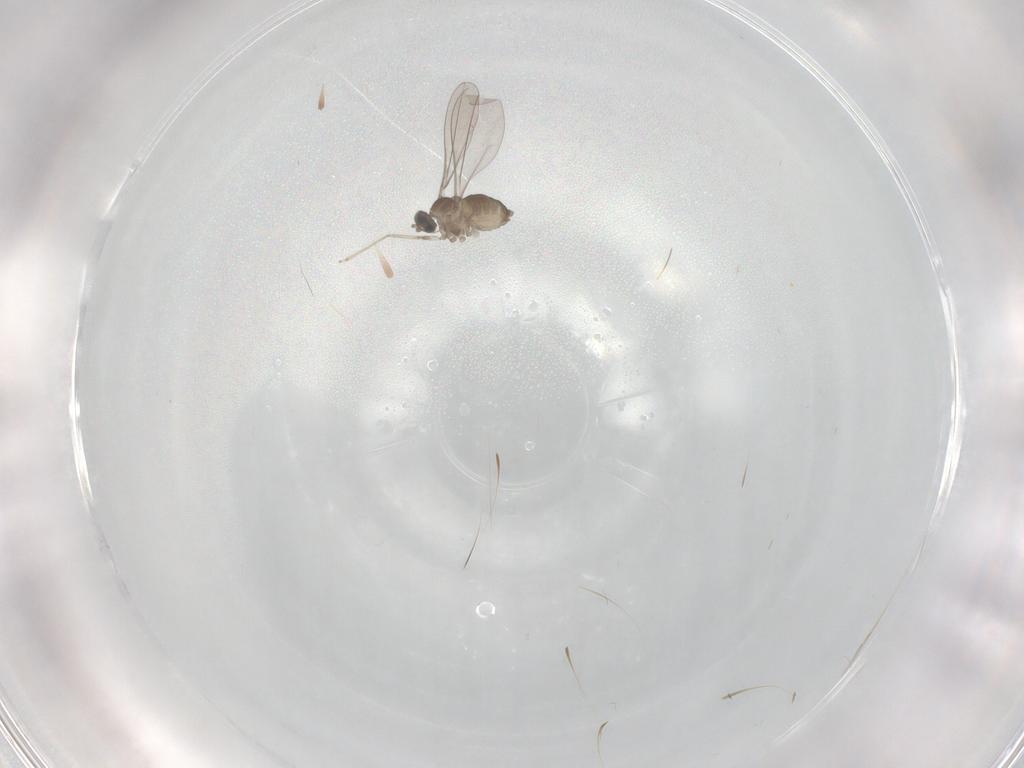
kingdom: Animalia
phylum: Arthropoda
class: Insecta
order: Diptera
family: Cecidomyiidae
